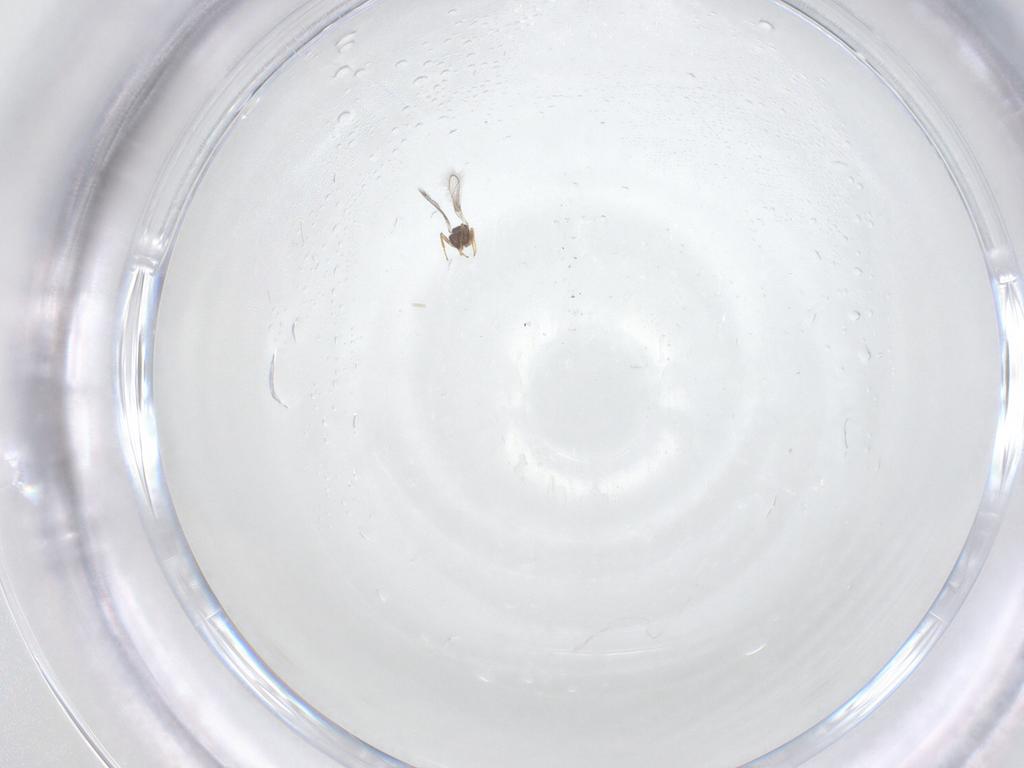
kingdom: Animalia
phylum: Arthropoda
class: Insecta
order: Hymenoptera
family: Mymaridae
